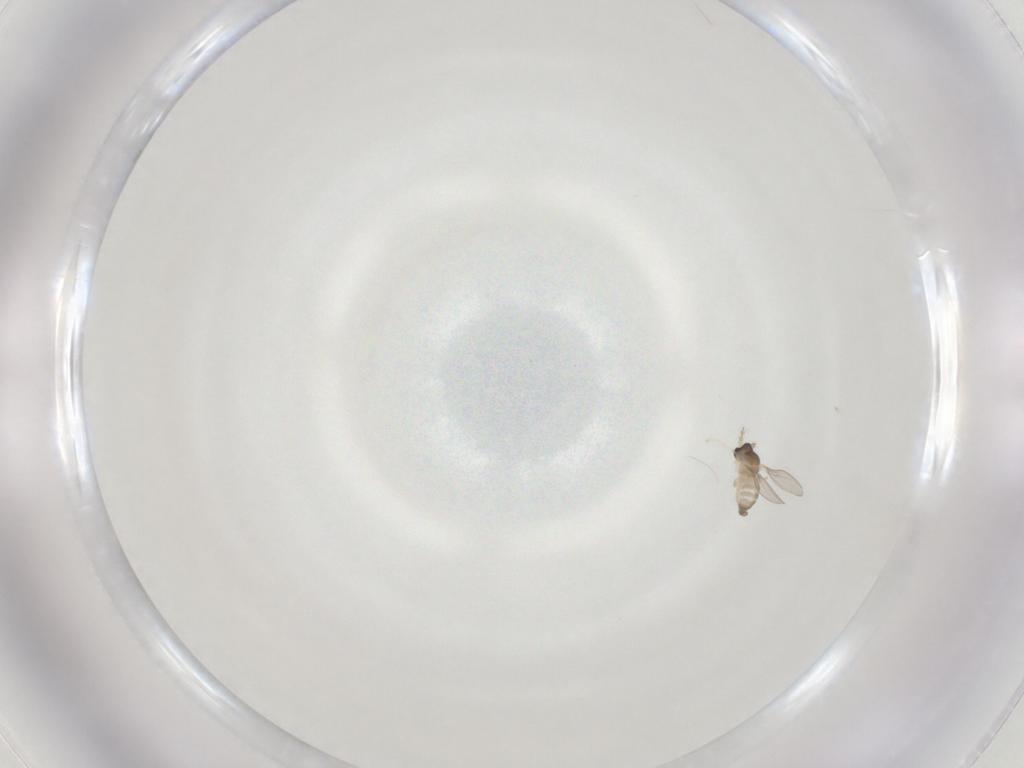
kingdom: Animalia
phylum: Arthropoda
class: Insecta
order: Diptera
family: Cecidomyiidae
